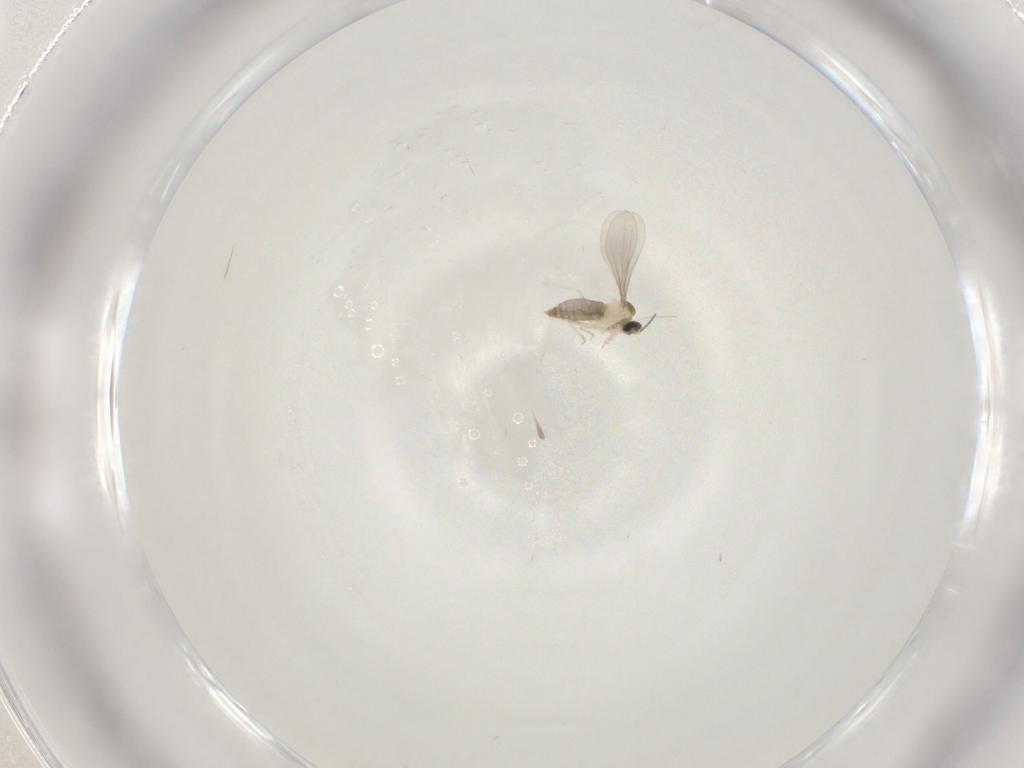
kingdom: Animalia
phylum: Arthropoda
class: Insecta
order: Diptera
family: Cecidomyiidae
